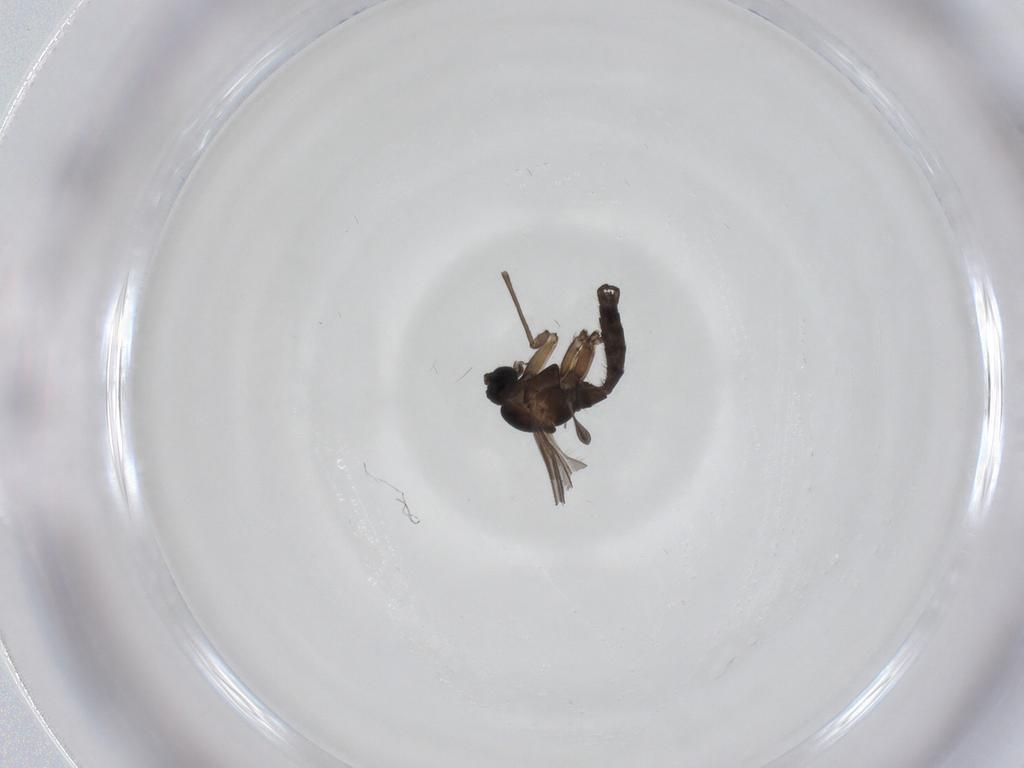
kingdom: Animalia
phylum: Arthropoda
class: Insecta
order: Diptera
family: Sciaridae
